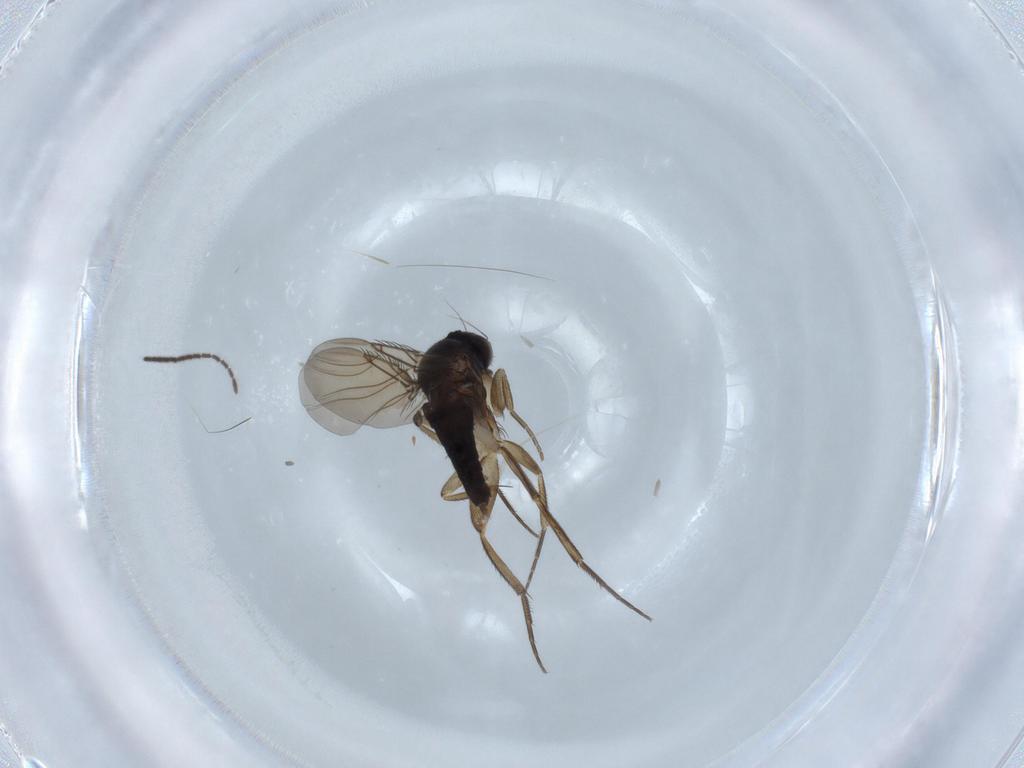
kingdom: Animalia
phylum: Arthropoda
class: Insecta
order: Diptera
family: Phoridae
